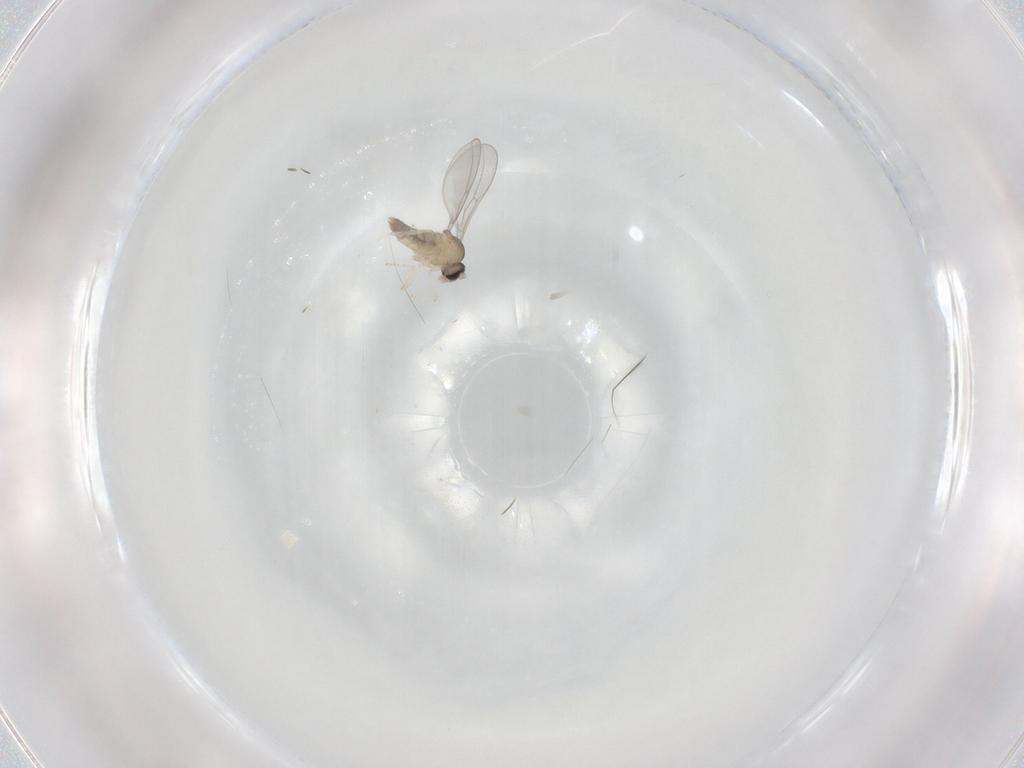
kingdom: Animalia
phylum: Arthropoda
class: Insecta
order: Diptera
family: Cecidomyiidae
